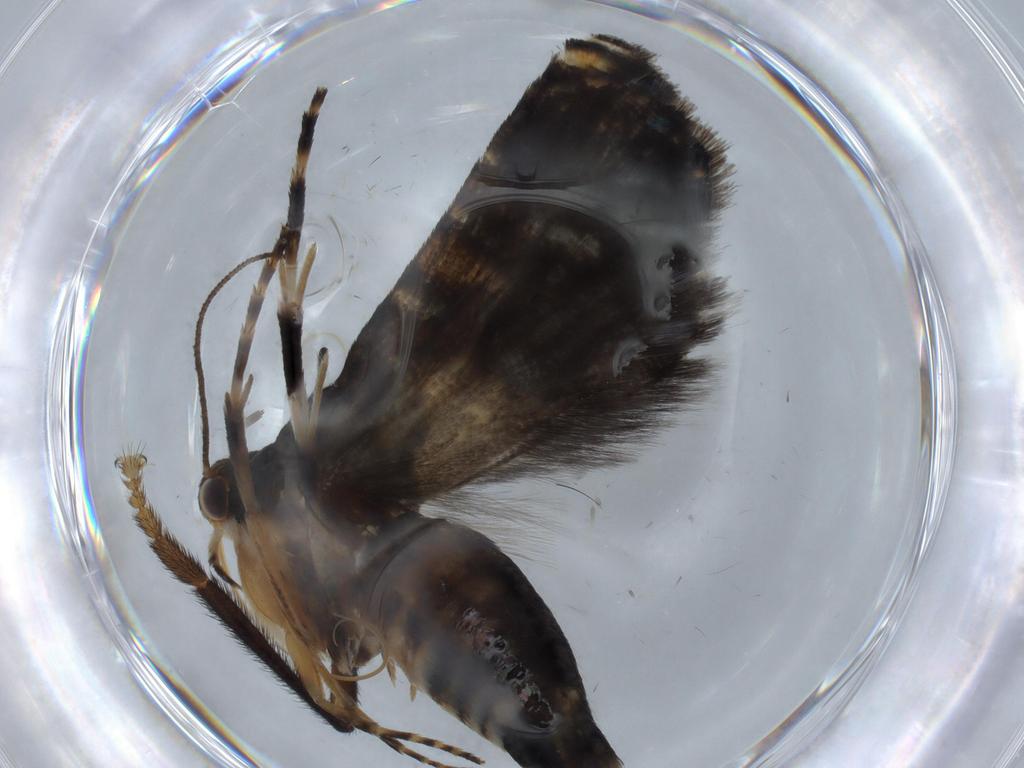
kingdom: Animalia
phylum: Arthropoda
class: Insecta
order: Lepidoptera
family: Glyphipterigidae
